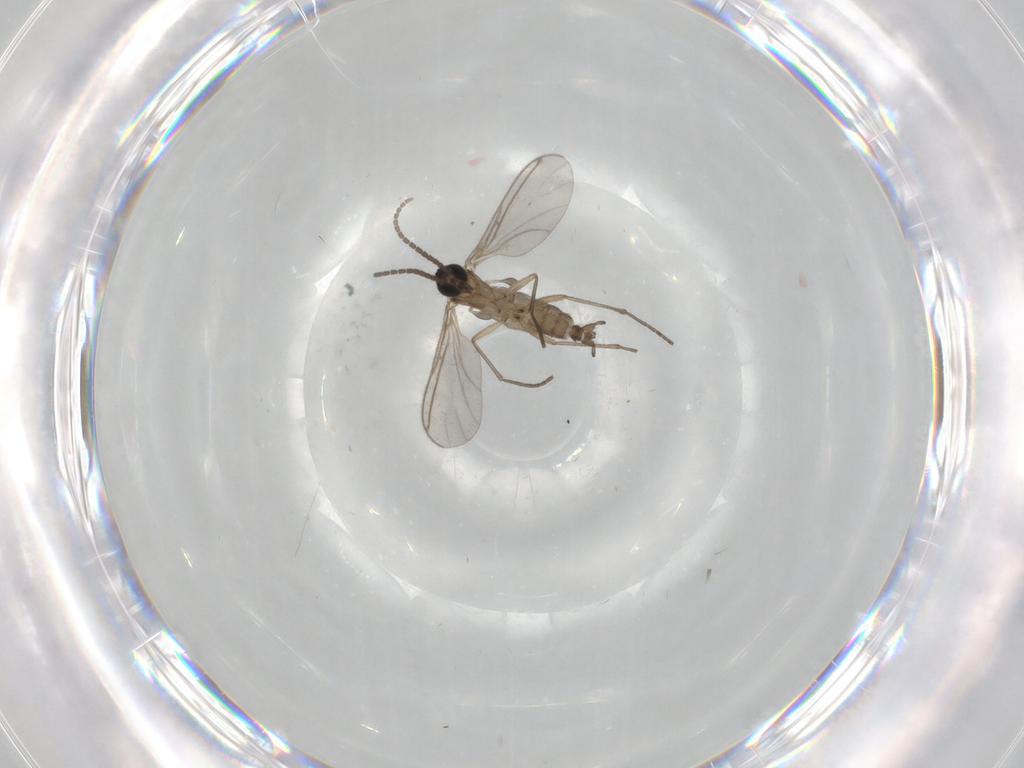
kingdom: Animalia
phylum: Arthropoda
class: Insecta
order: Diptera
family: Sciaridae
